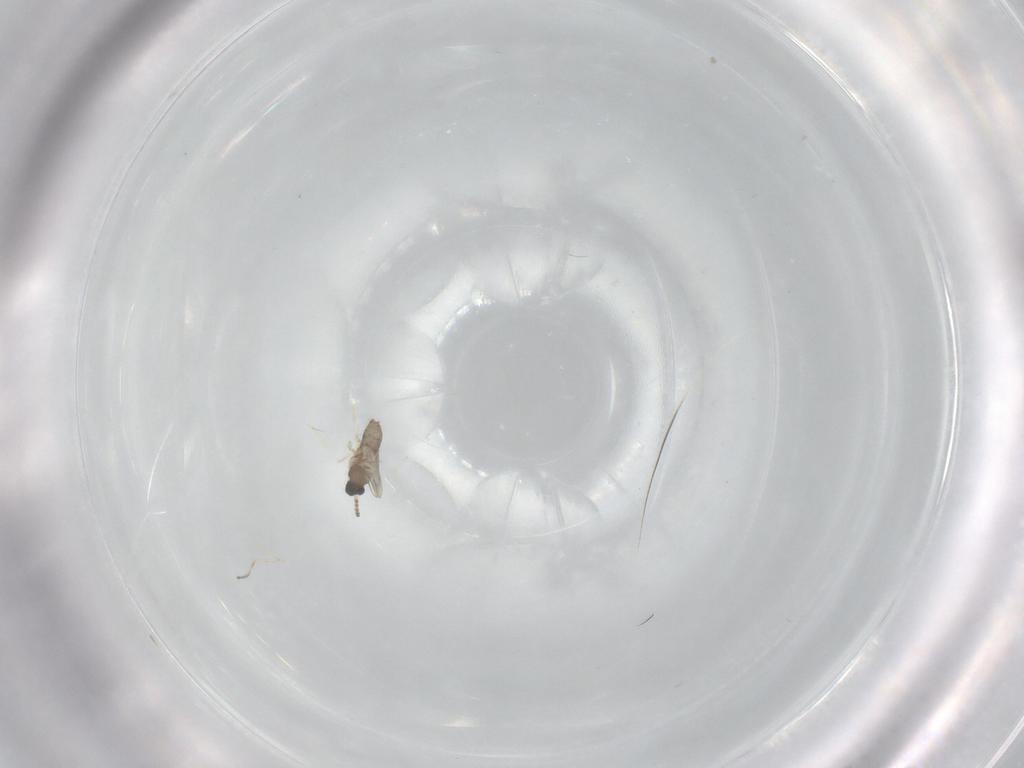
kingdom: Animalia
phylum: Arthropoda
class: Insecta
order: Diptera
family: Cecidomyiidae
